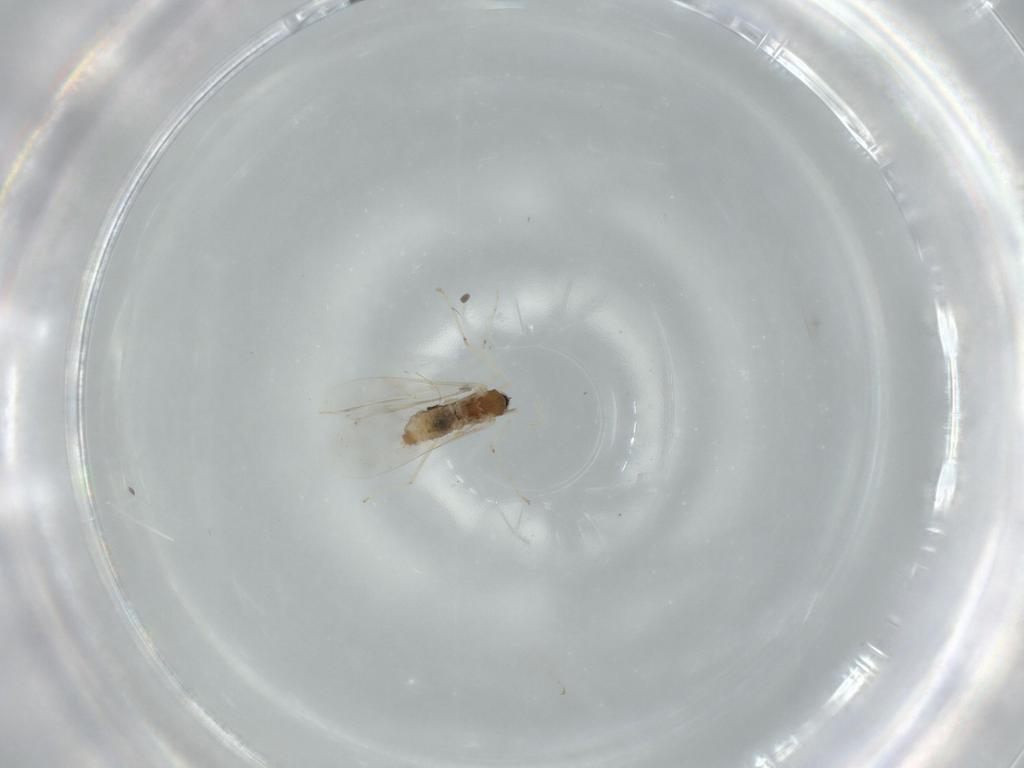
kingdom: Animalia
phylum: Arthropoda
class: Insecta
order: Diptera
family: Cecidomyiidae
